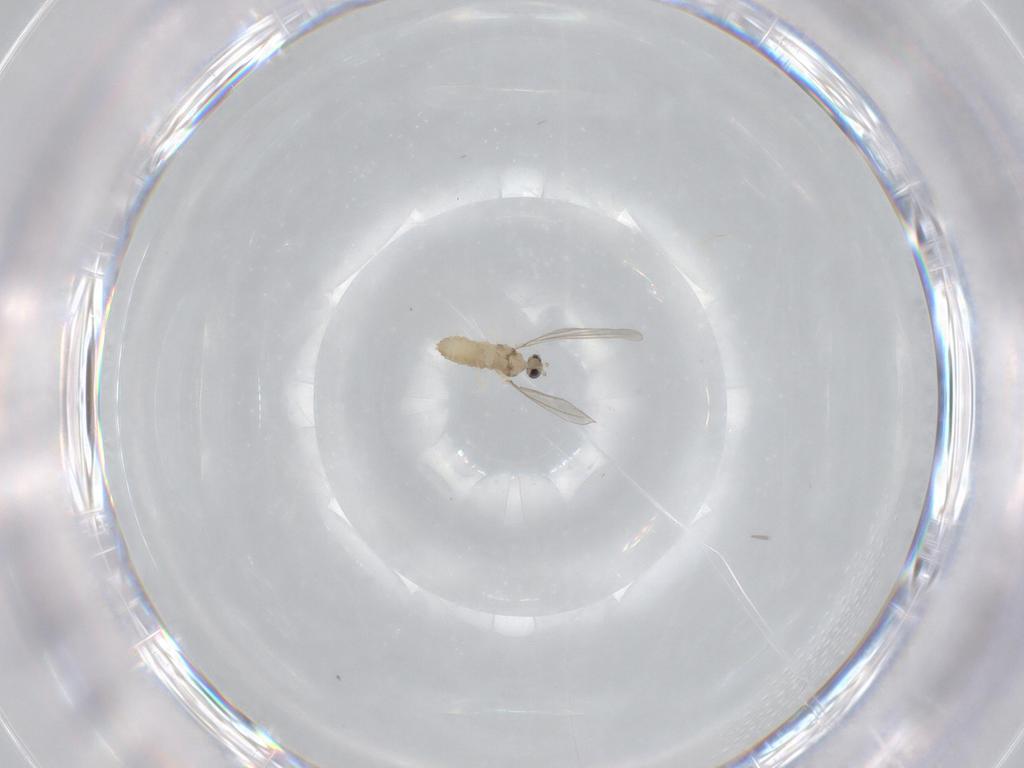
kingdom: Animalia
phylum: Arthropoda
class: Insecta
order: Diptera
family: Cecidomyiidae
